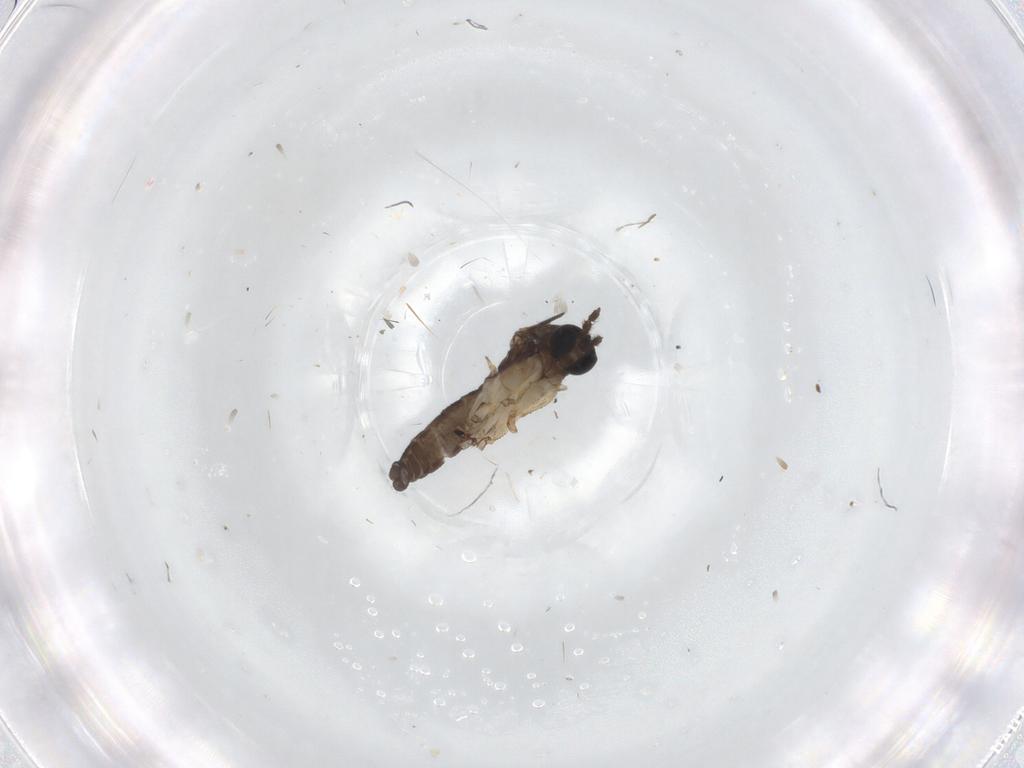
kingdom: Animalia
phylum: Arthropoda
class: Insecta
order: Diptera
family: Sciaridae
